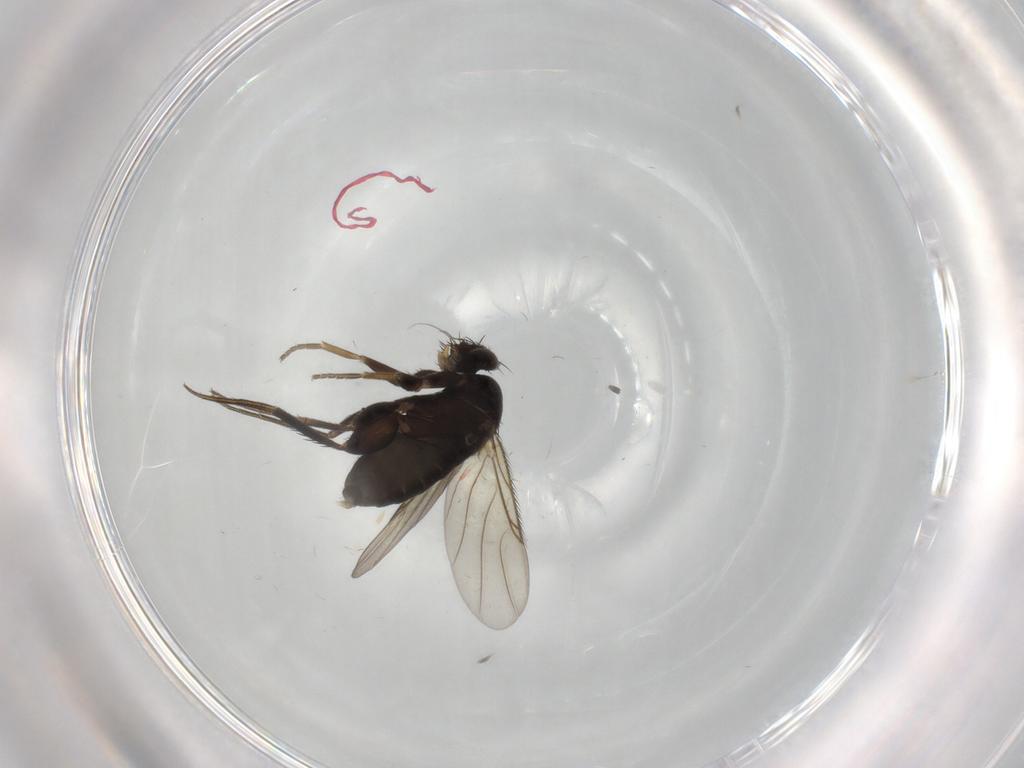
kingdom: Animalia
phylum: Arthropoda
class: Insecta
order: Diptera
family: Phoridae
